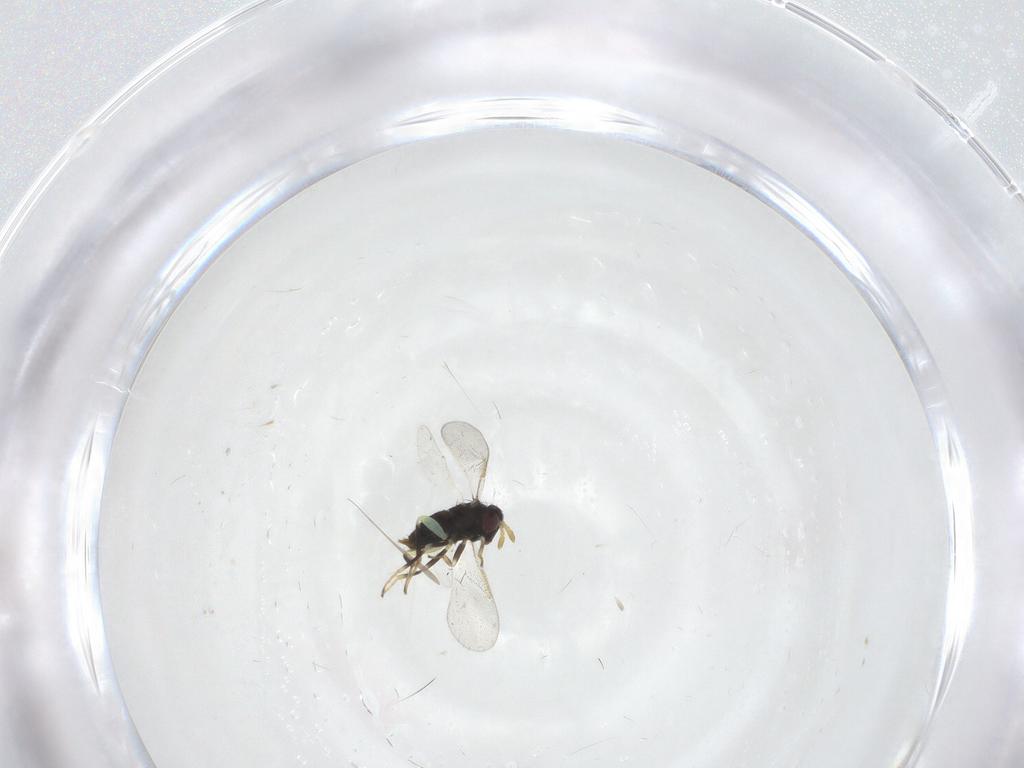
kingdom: Animalia
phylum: Arthropoda
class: Insecta
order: Hymenoptera
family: Aphelinidae
